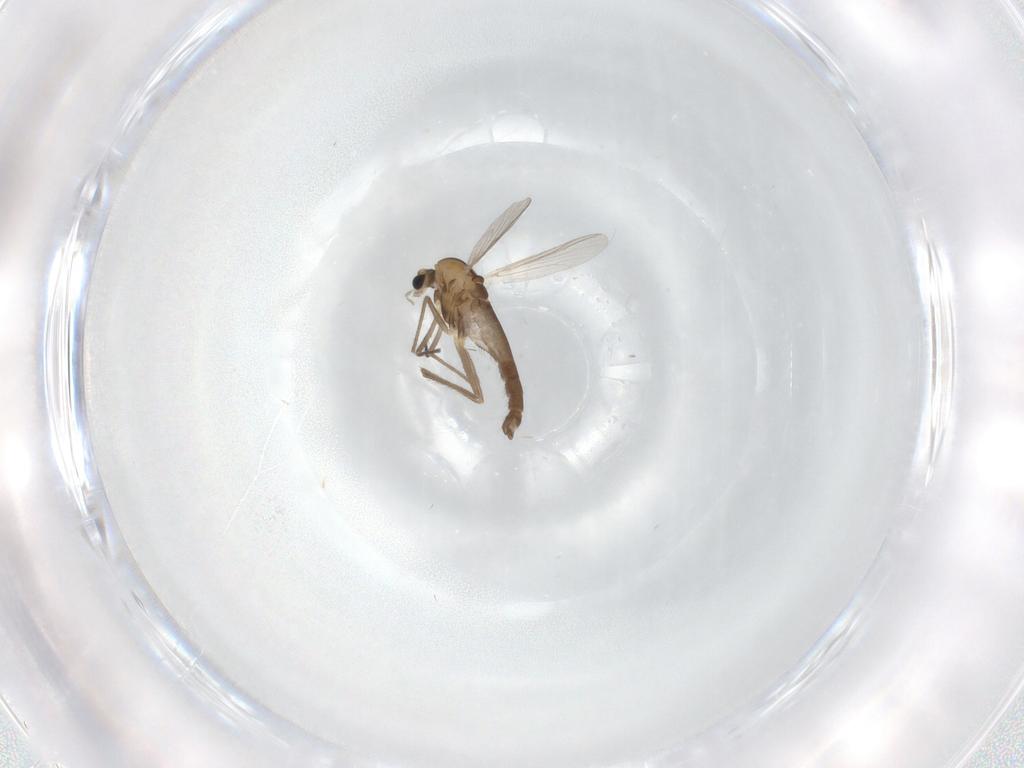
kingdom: Animalia
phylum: Arthropoda
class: Insecta
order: Diptera
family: Chironomidae
